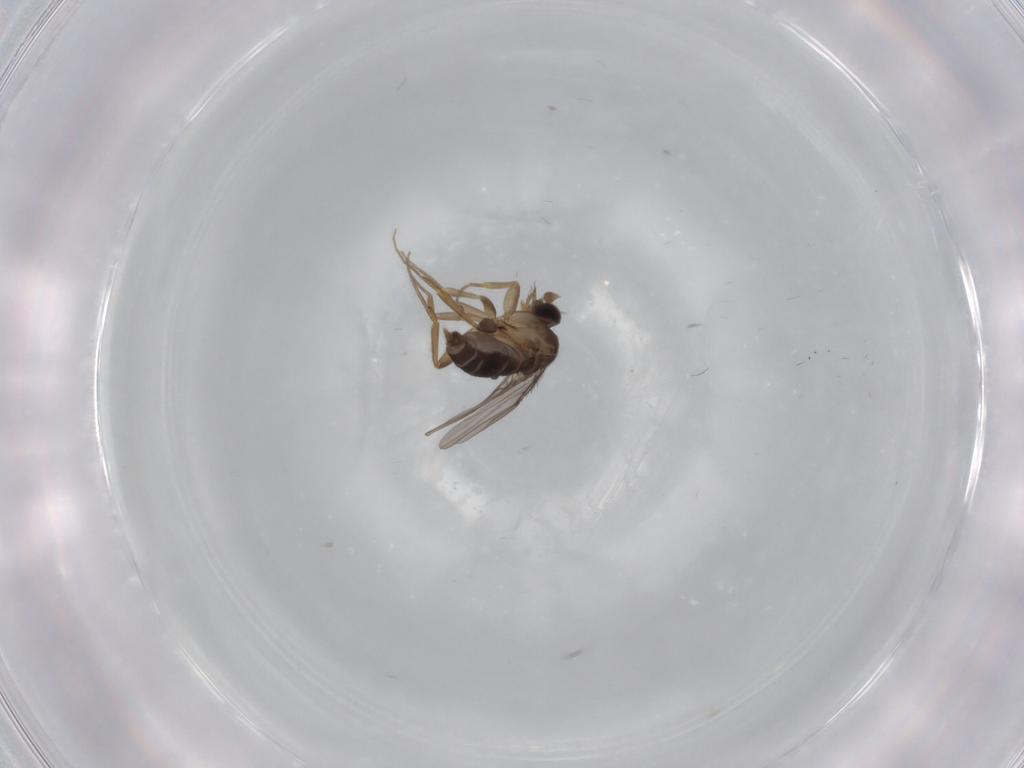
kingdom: Animalia
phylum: Arthropoda
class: Insecta
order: Diptera
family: Phoridae
